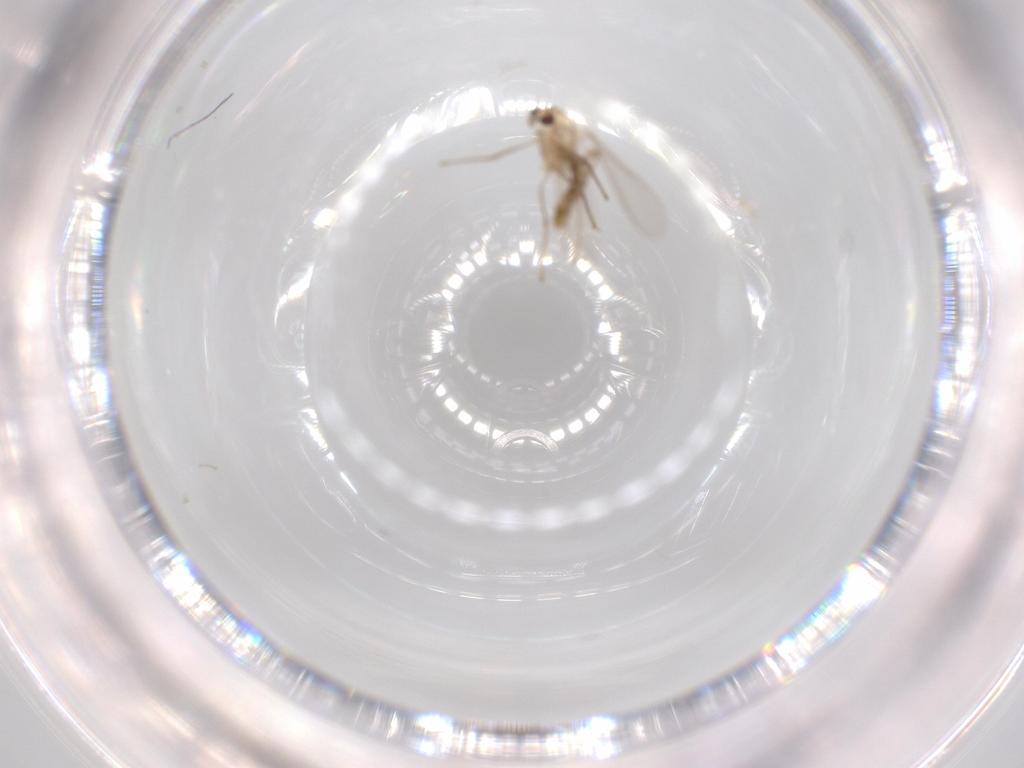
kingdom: Animalia
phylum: Arthropoda
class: Insecta
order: Diptera
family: Chironomidae
